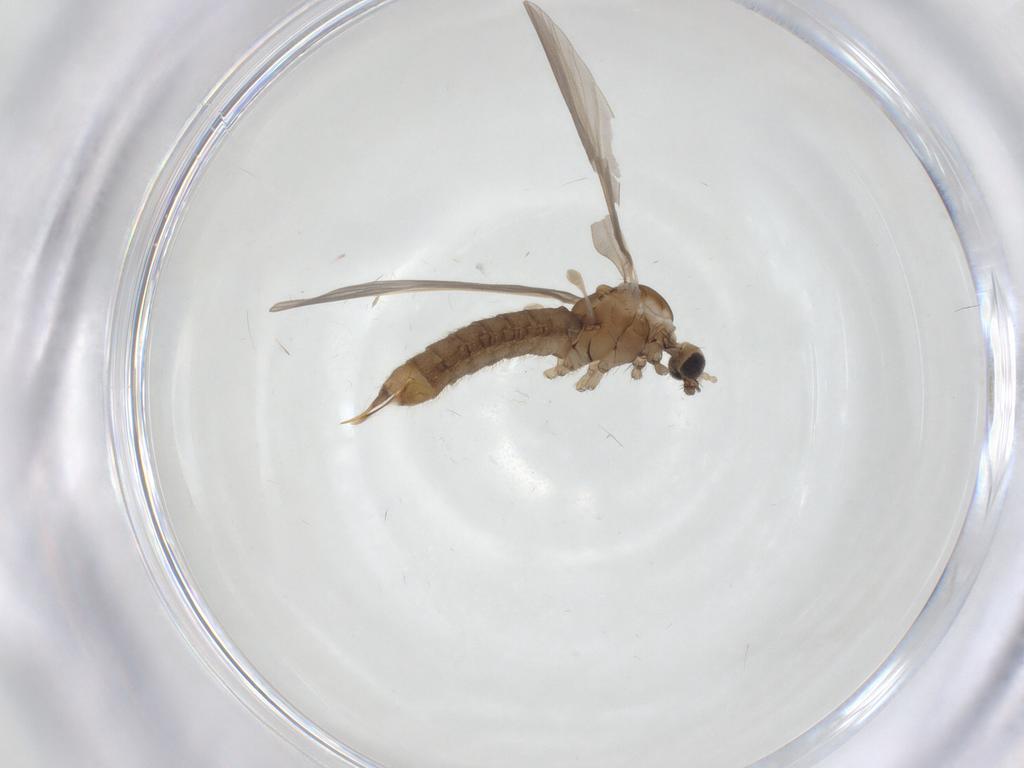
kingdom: Animalia
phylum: Arthropoda
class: Insecta
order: Diptera
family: Limoniidae
